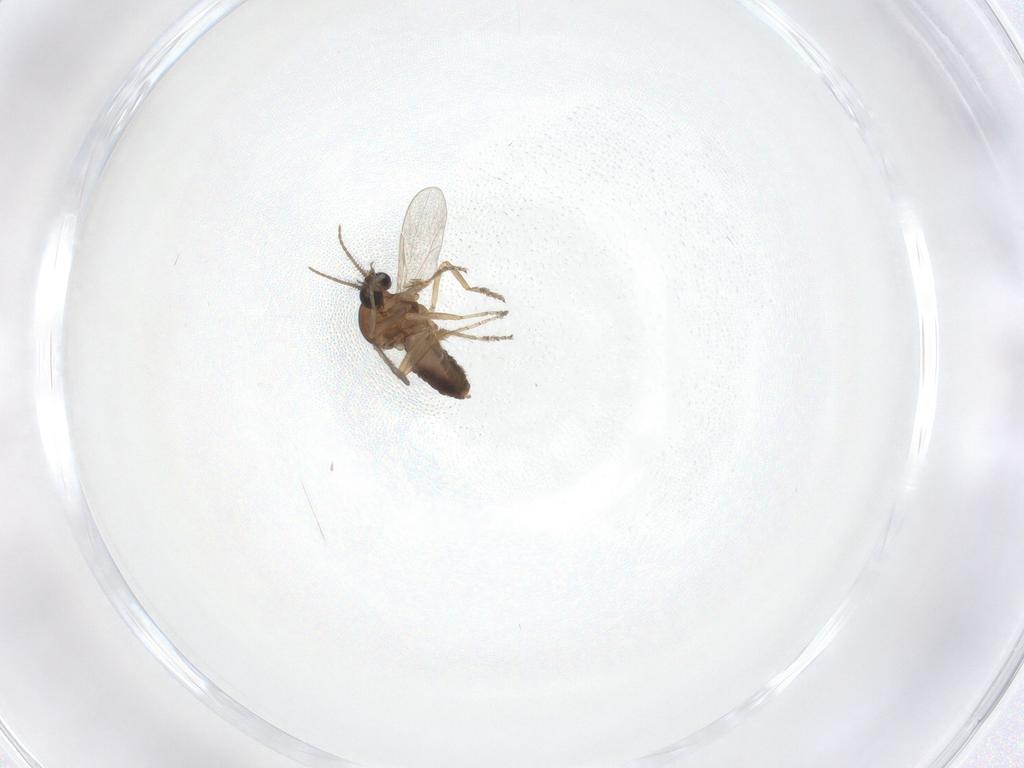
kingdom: Animalia
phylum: Arthropoda
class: Insecta
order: Diptera
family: Ceratopogonidae
